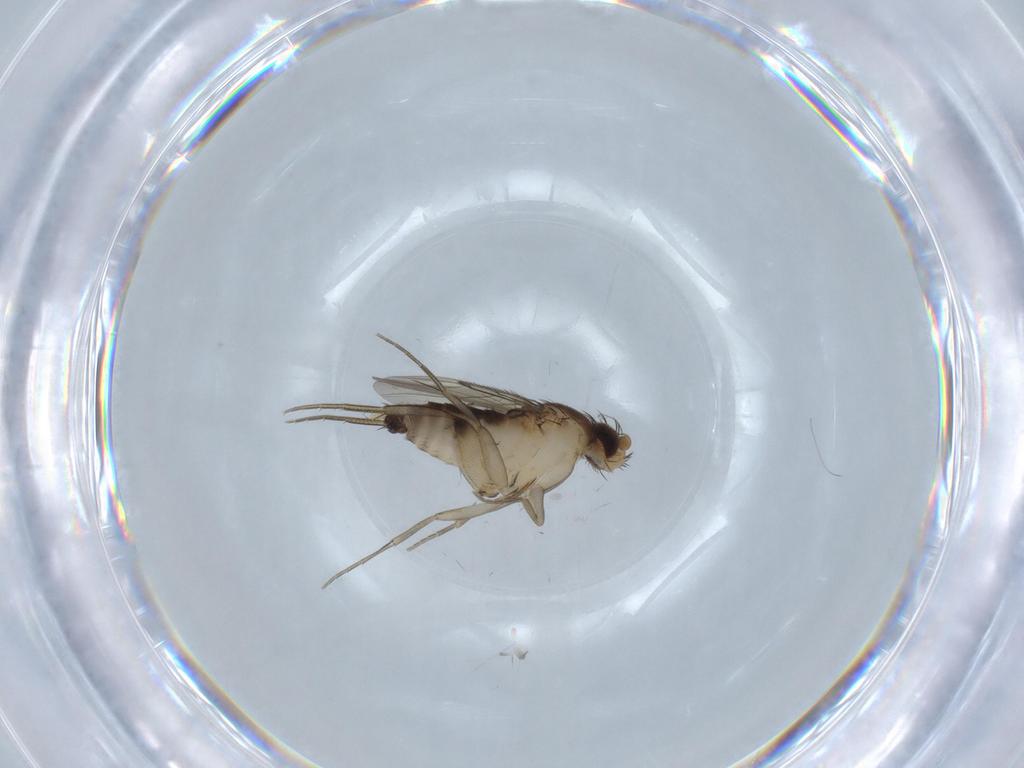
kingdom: Animalia
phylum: Arthropoda
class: Insecta
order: Diptera
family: Phoridae
